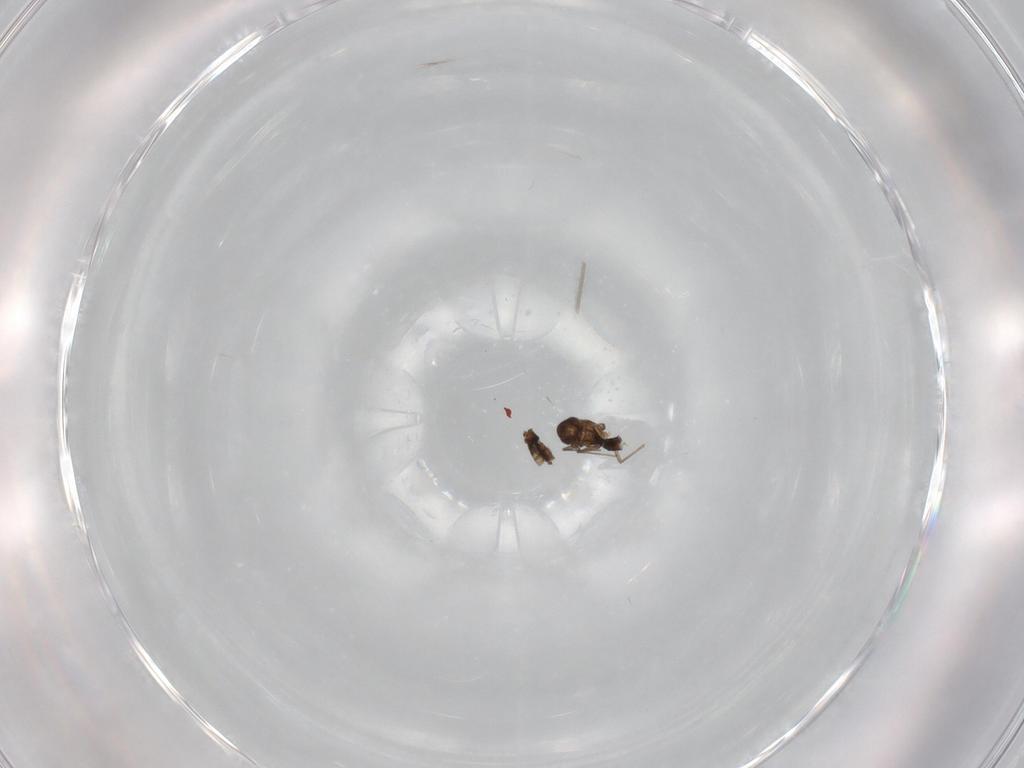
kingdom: Animalia
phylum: Arthropoda
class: Insecta
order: Diptera
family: Chironomidae
